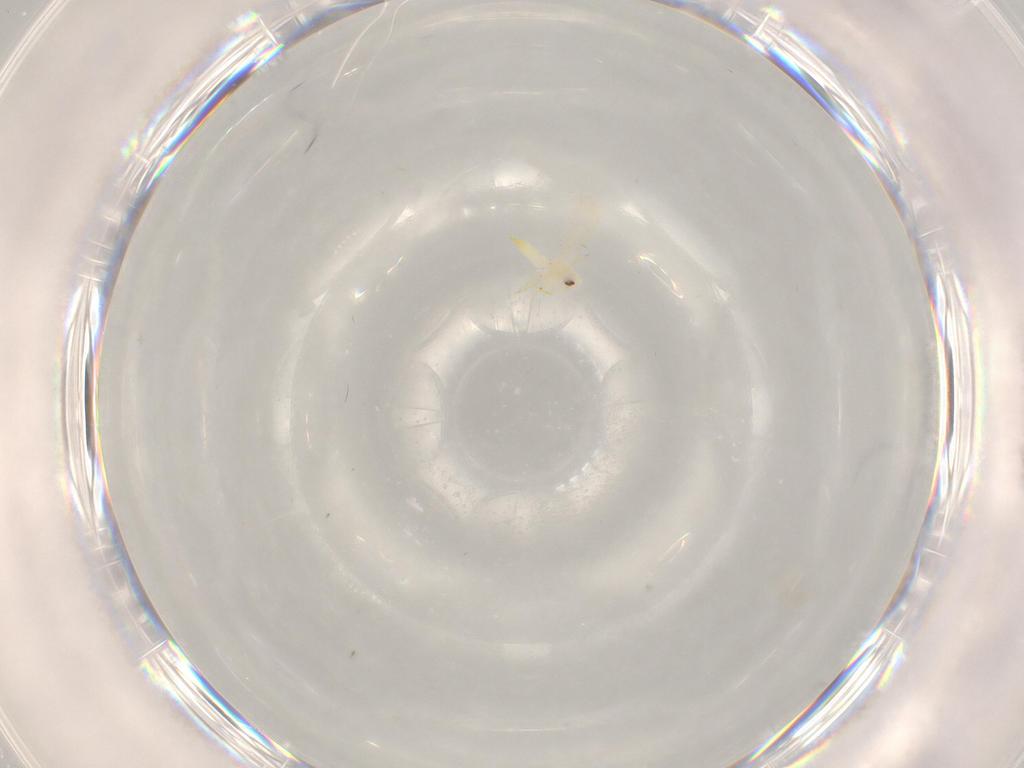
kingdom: Animalia
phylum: Arthropoda
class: Insecta
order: Hemiptera
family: Aleyrodidae
